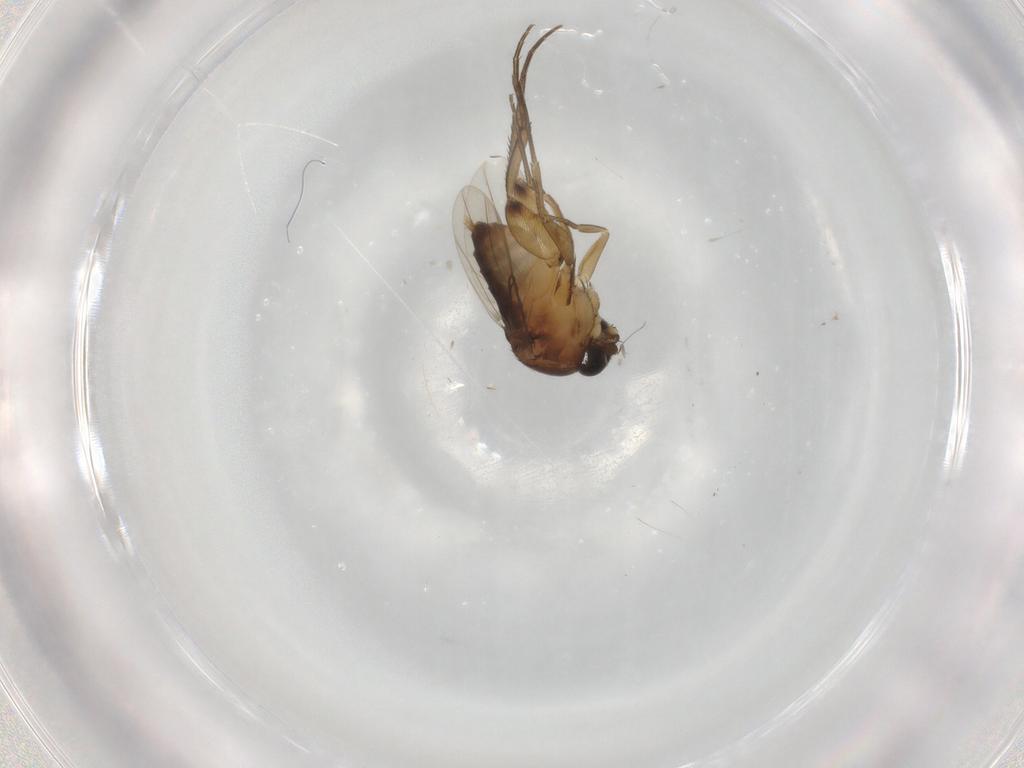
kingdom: Animalia
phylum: Arthropoda
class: Insecta
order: Diptera
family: Phoridae
